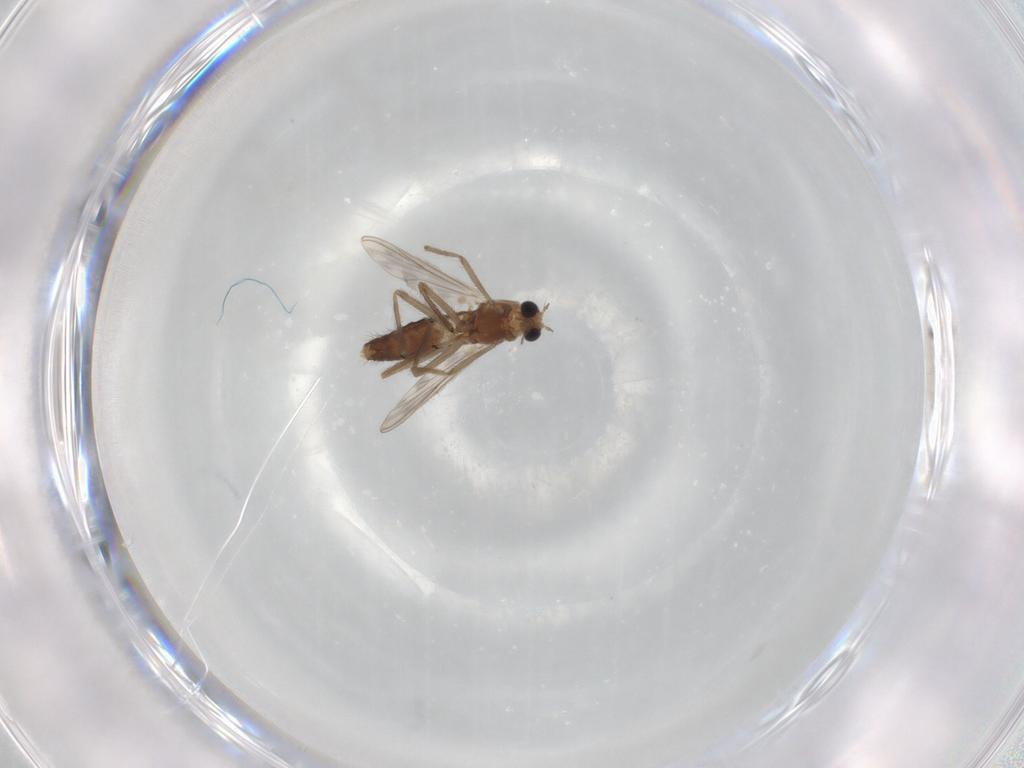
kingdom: Animalia
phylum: Arthropoda
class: Insecta
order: Diptera
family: Chironomidae
